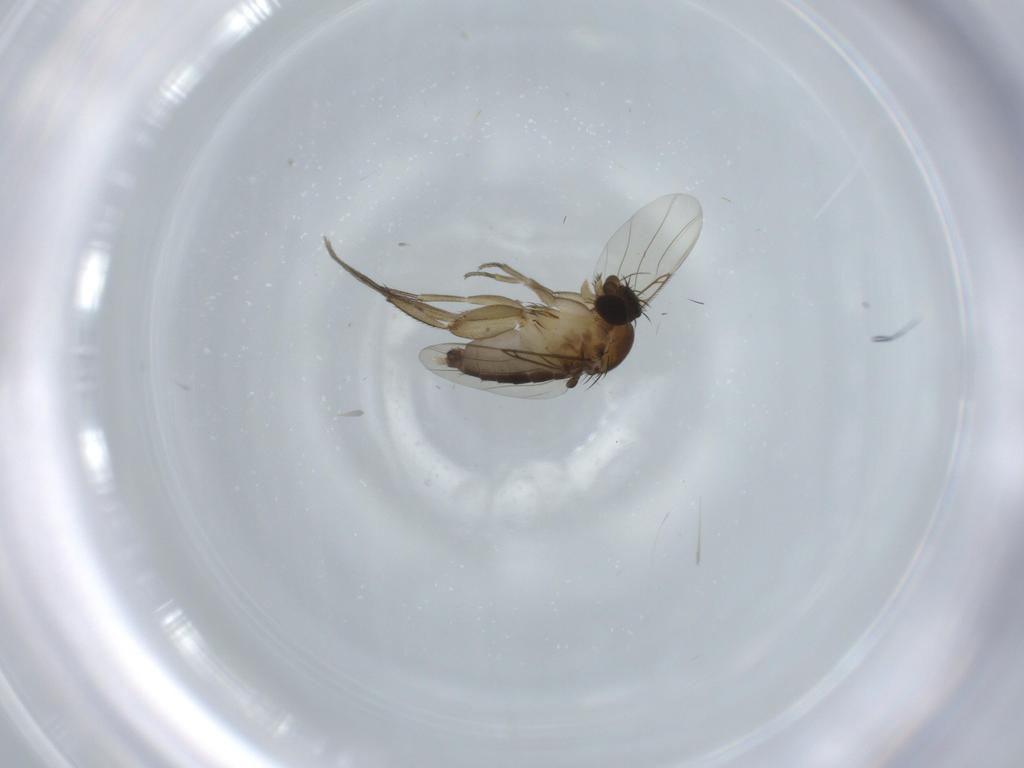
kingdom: Animalia
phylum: Arthropoda
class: Insecta
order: Diptera
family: Phoridae
